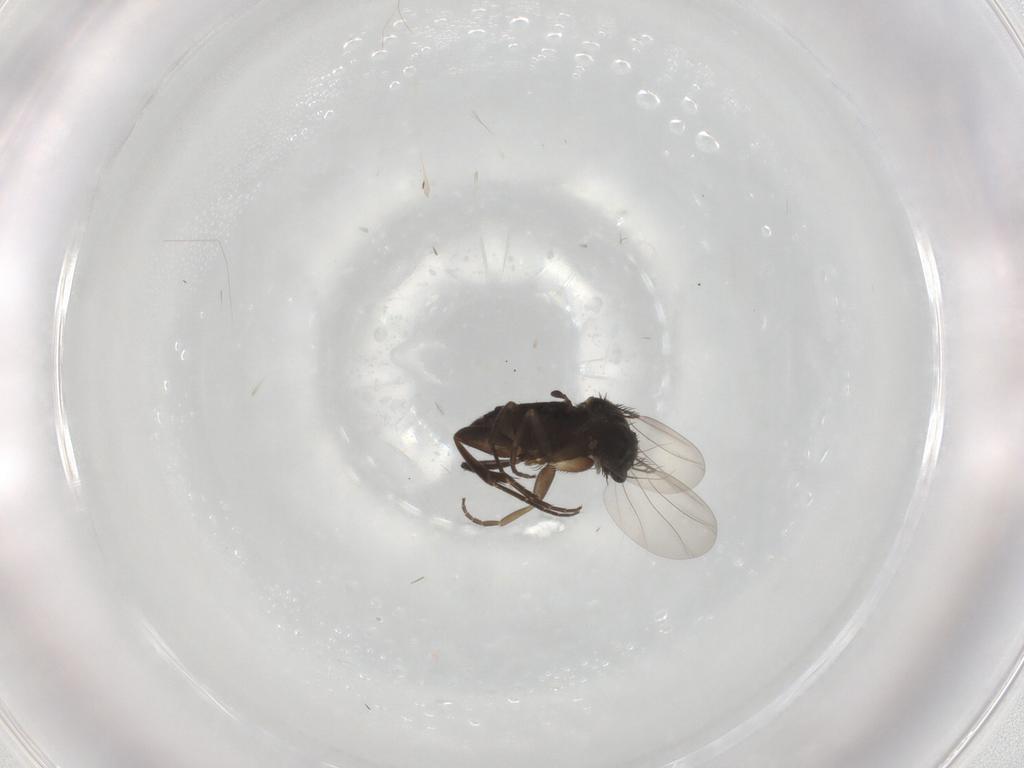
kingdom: Animalia
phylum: Arthropoda
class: Insecta
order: Diptera
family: Phoridae
